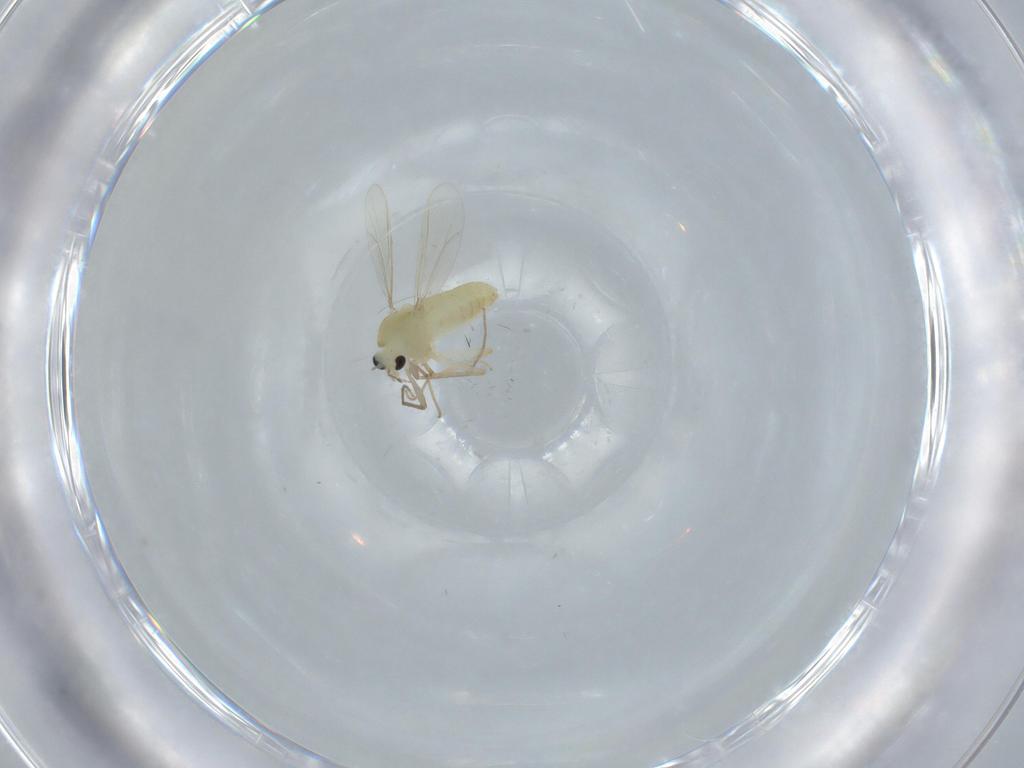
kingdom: Animalia
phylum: Arthropoda
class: Insecta
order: Diptera
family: Chironomidae
